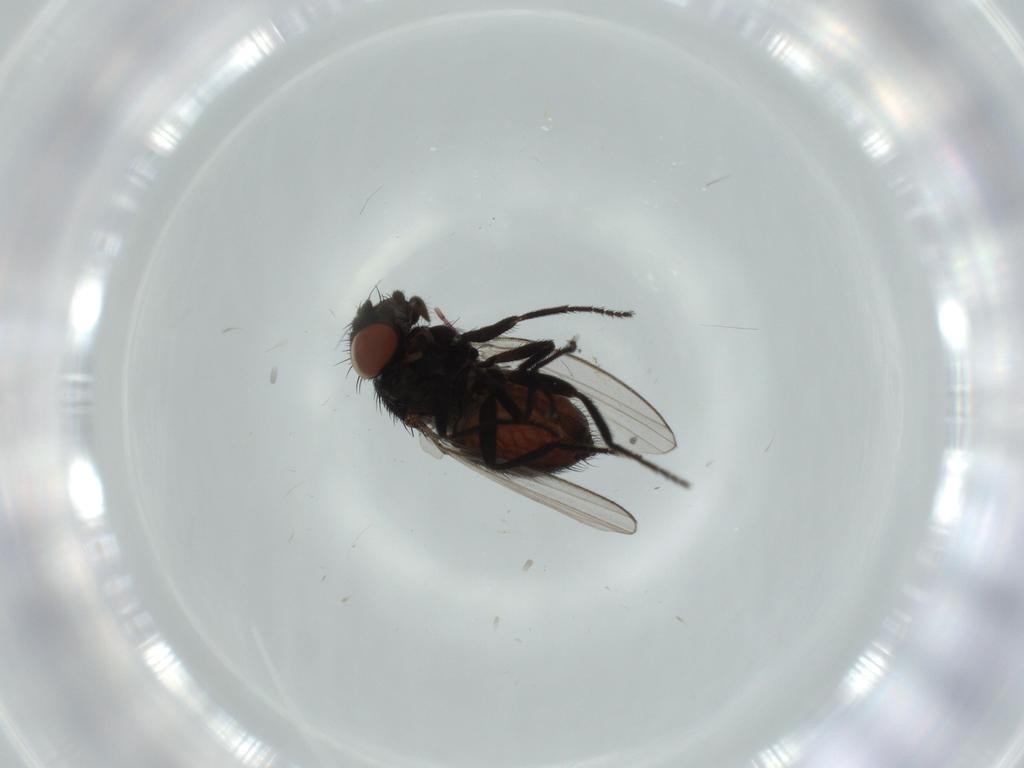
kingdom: Animalia
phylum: Arthropoda
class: Insecta
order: Diptera
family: Milichiidae
